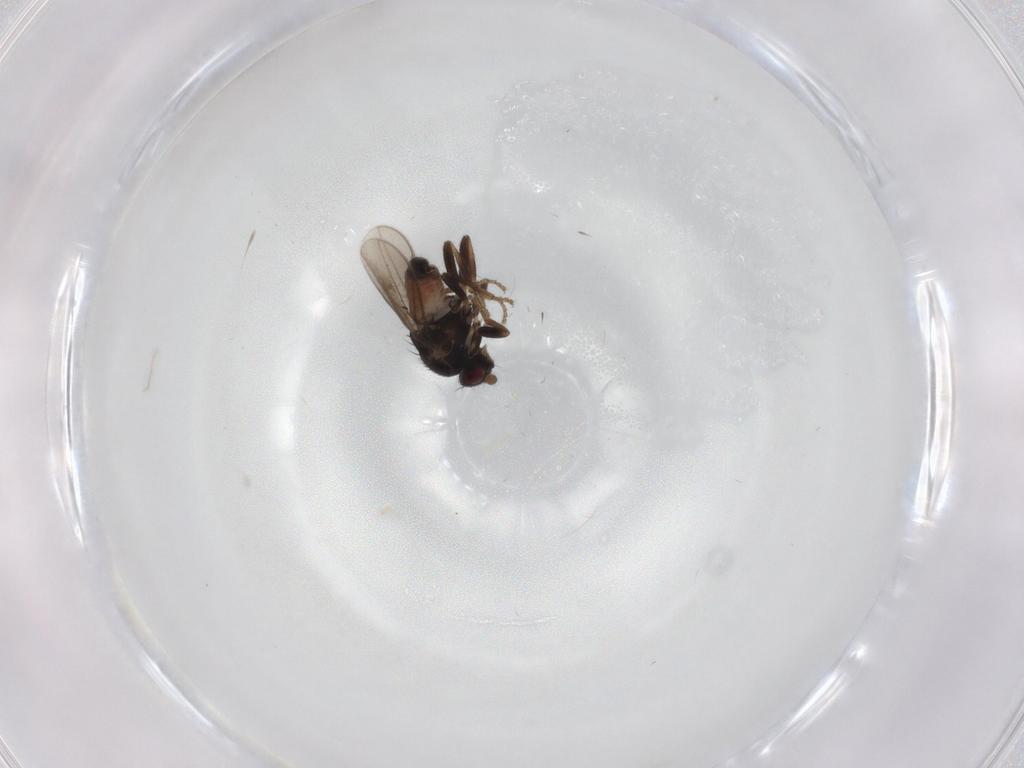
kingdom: Animalia
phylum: Arthropoda
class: Insecta
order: Diptera
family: Sphaeroceridae
